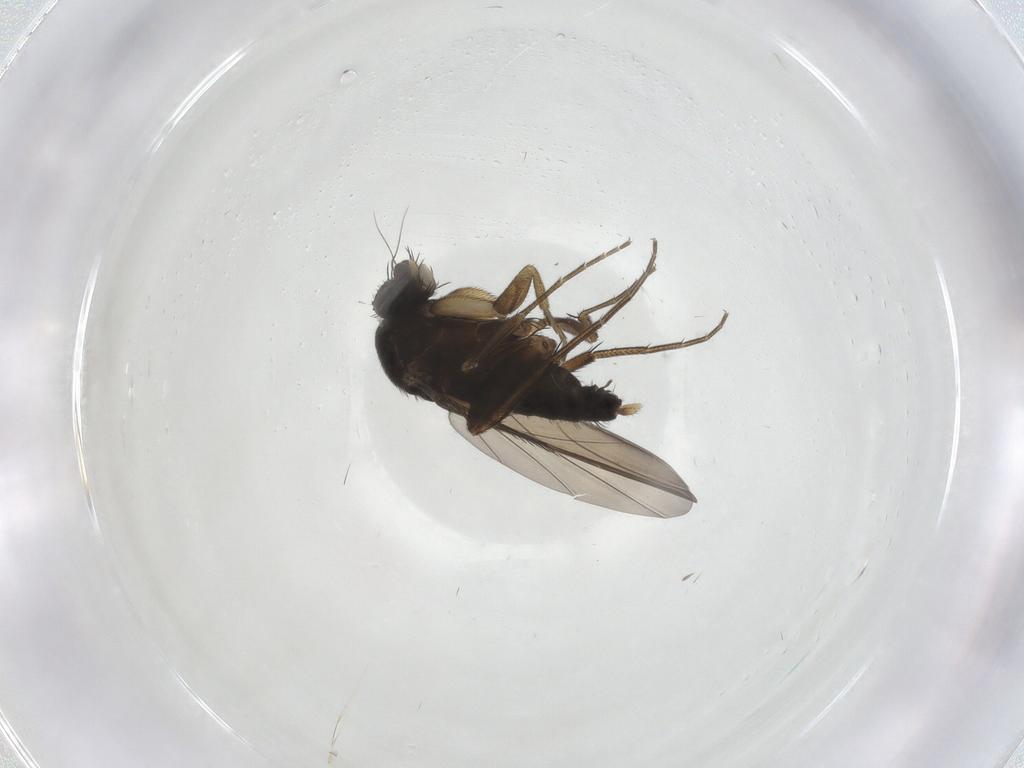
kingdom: Animalia
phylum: Arthropoda
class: Insecta
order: Diptera
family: Phoridae
